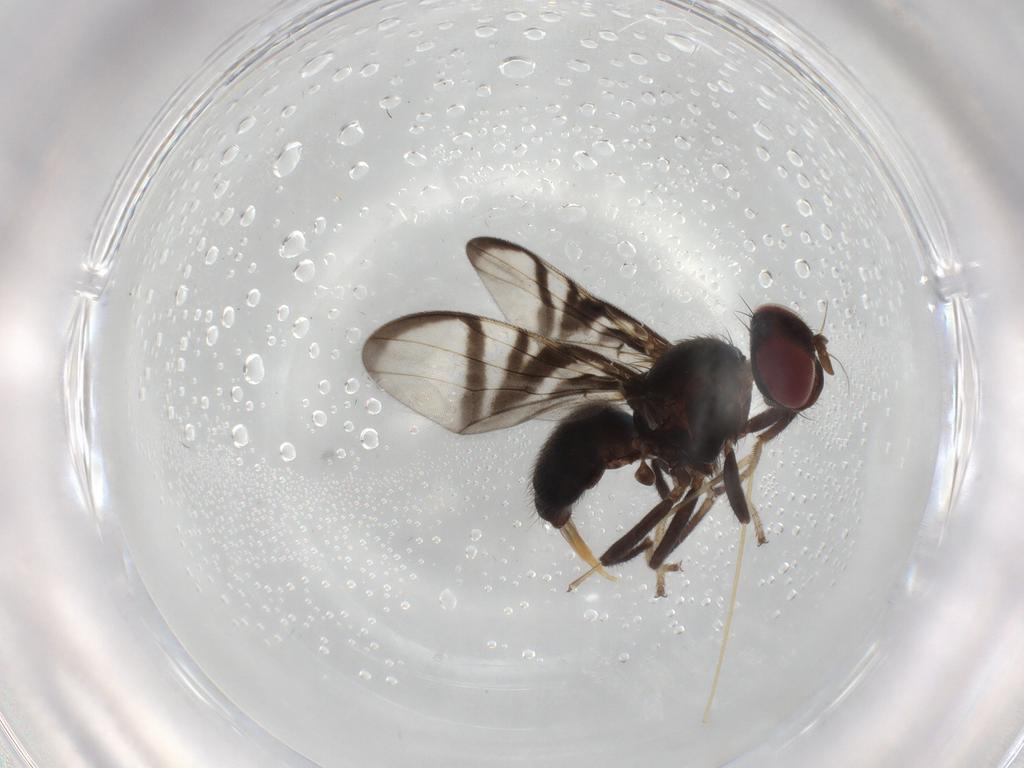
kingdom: Animalia
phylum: Arthropoda
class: Insecta
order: Diptera
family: Limoniidae
